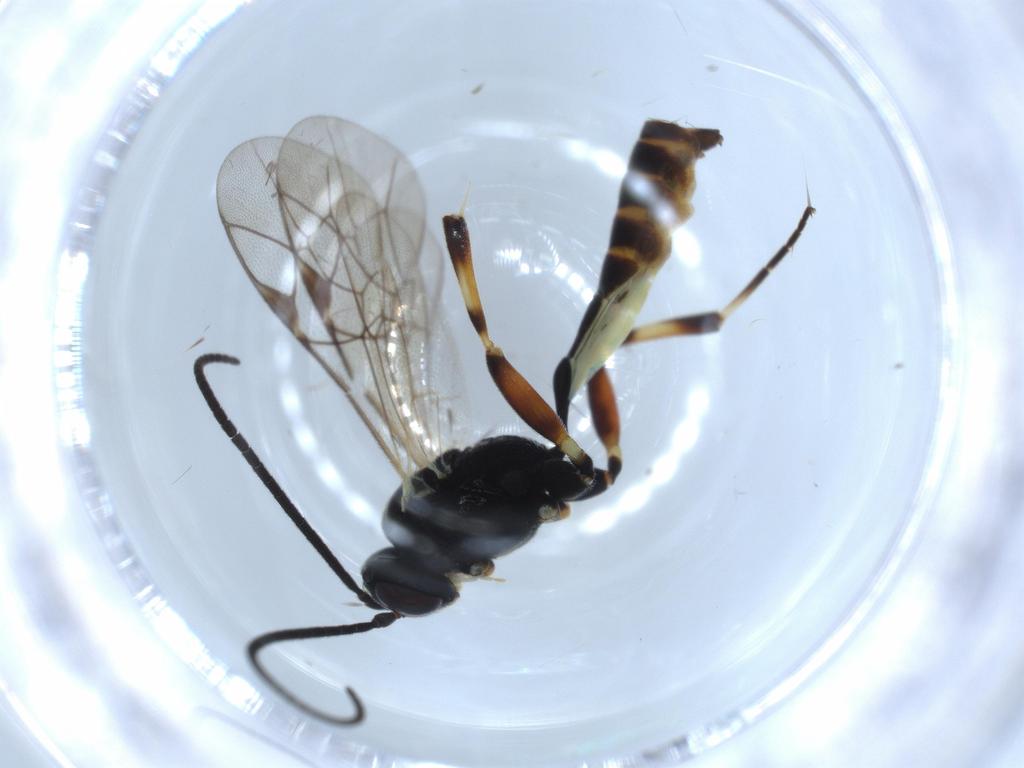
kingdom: Animalia
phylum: Arthropoda
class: Insecta
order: Hymenoptera
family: Ichneumonidae
